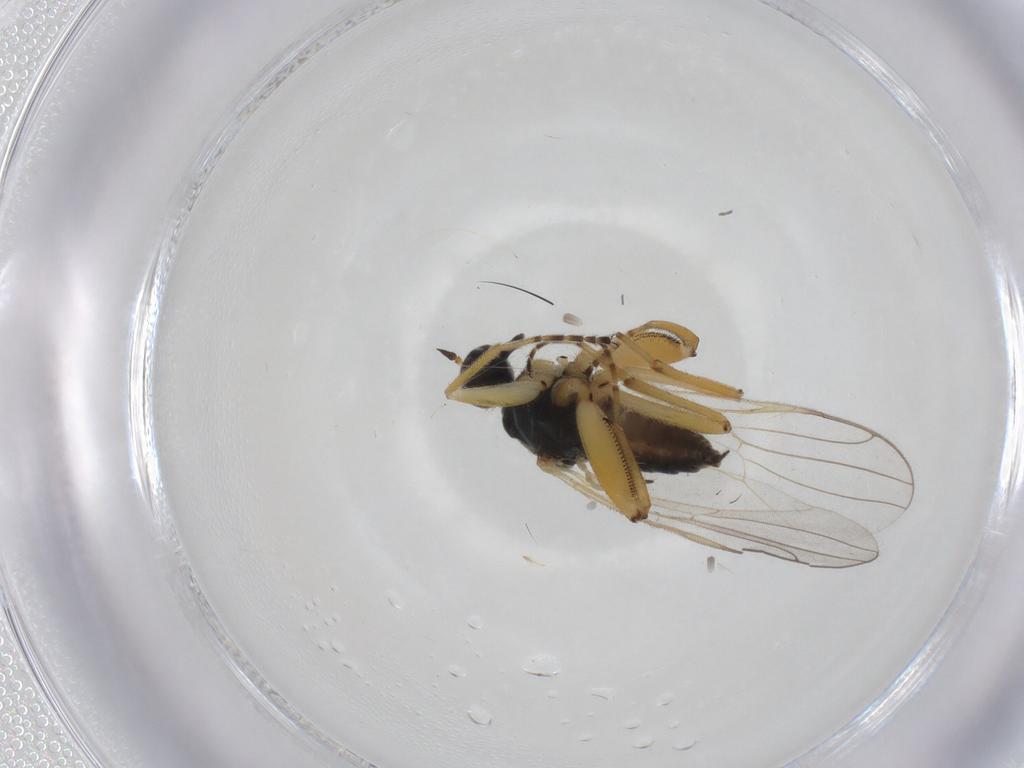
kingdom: Animalia
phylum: Arthropoda
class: Insecta
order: Diptera
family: Hybotidae
